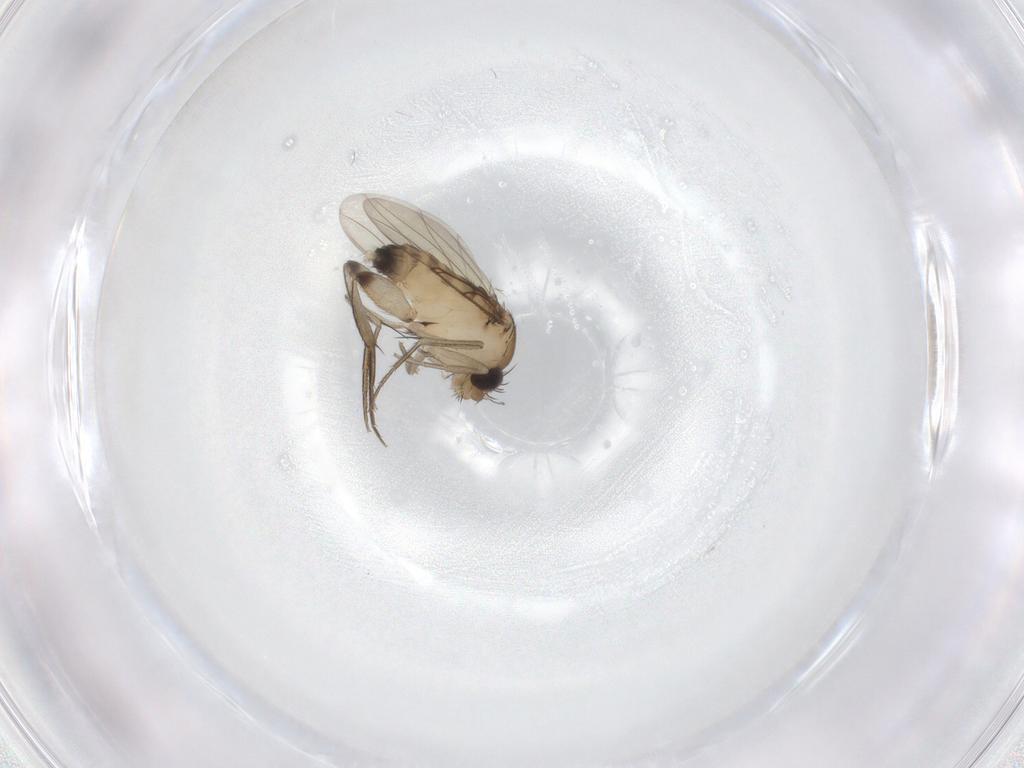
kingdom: Animalia
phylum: Arthropoda
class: Insecta
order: Diptera
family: Phoridae
